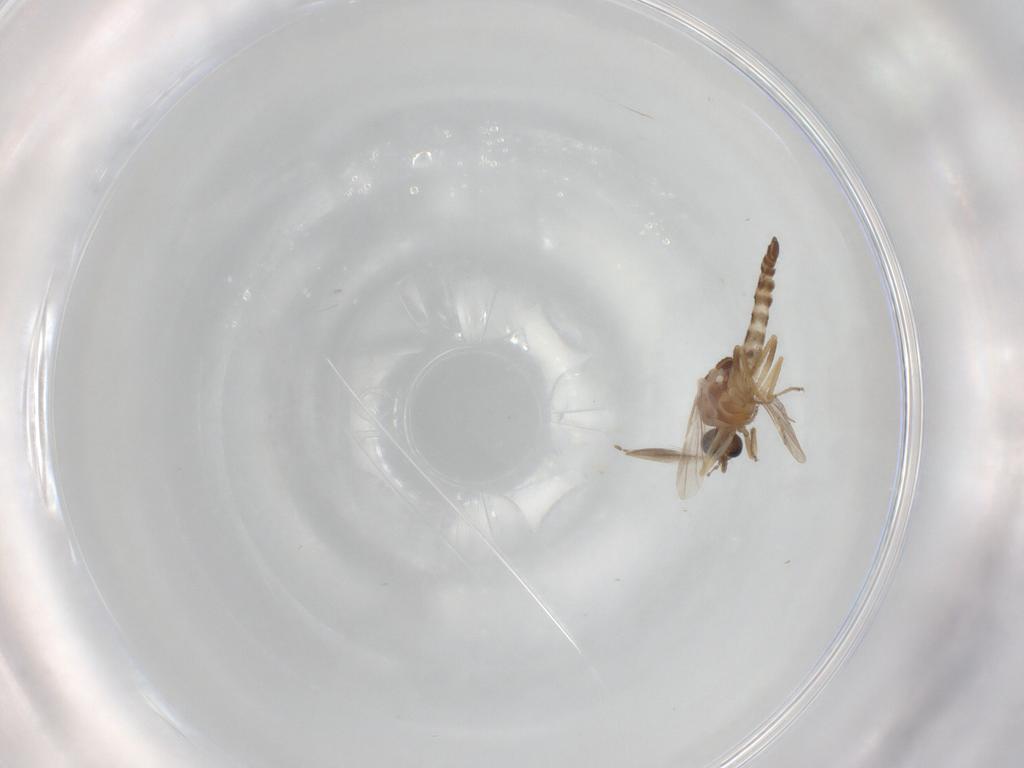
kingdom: Animalia
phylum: Arthropoda
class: Insecta
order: Diptera
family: Ceratopogonidae
